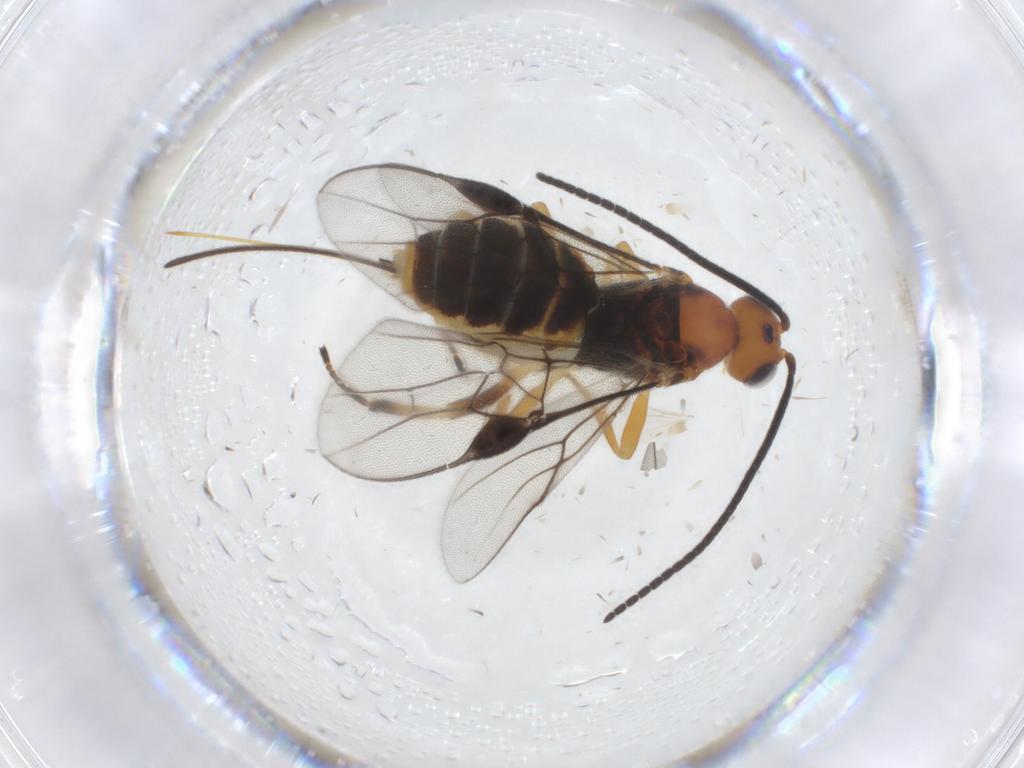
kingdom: Animalia
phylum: Arthropoda
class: Insecta
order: Hymenoptera
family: Braconidae
